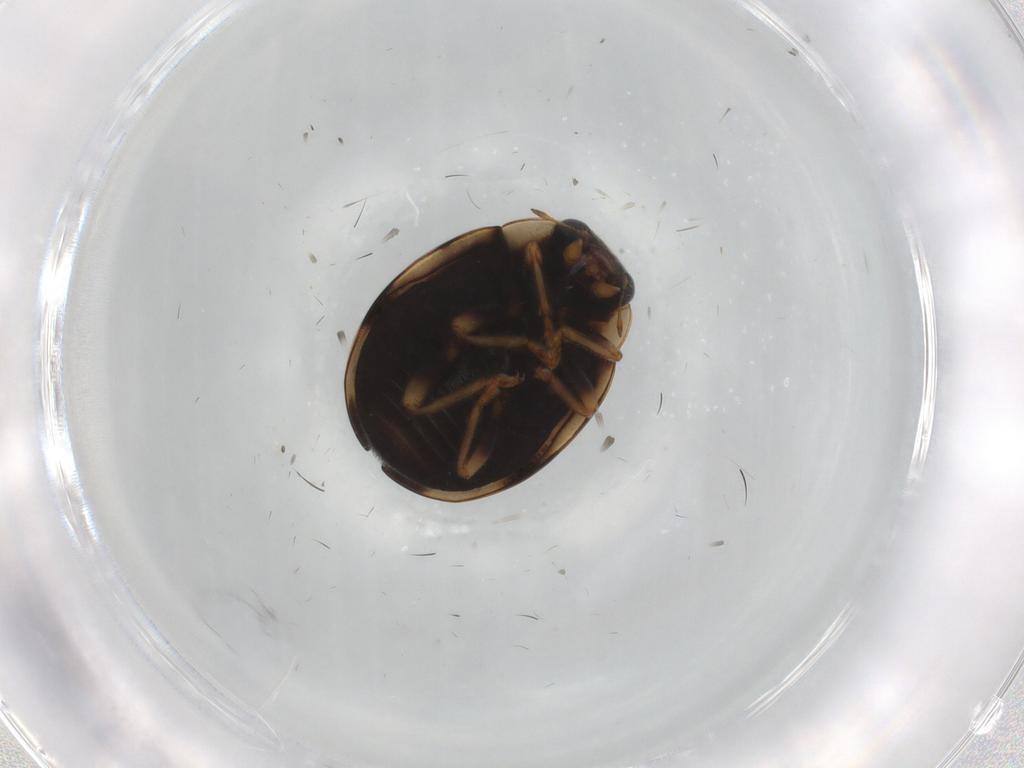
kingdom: Animalia
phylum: Arthropoda
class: Insecta
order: Coleoptera
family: Coccinellidae
